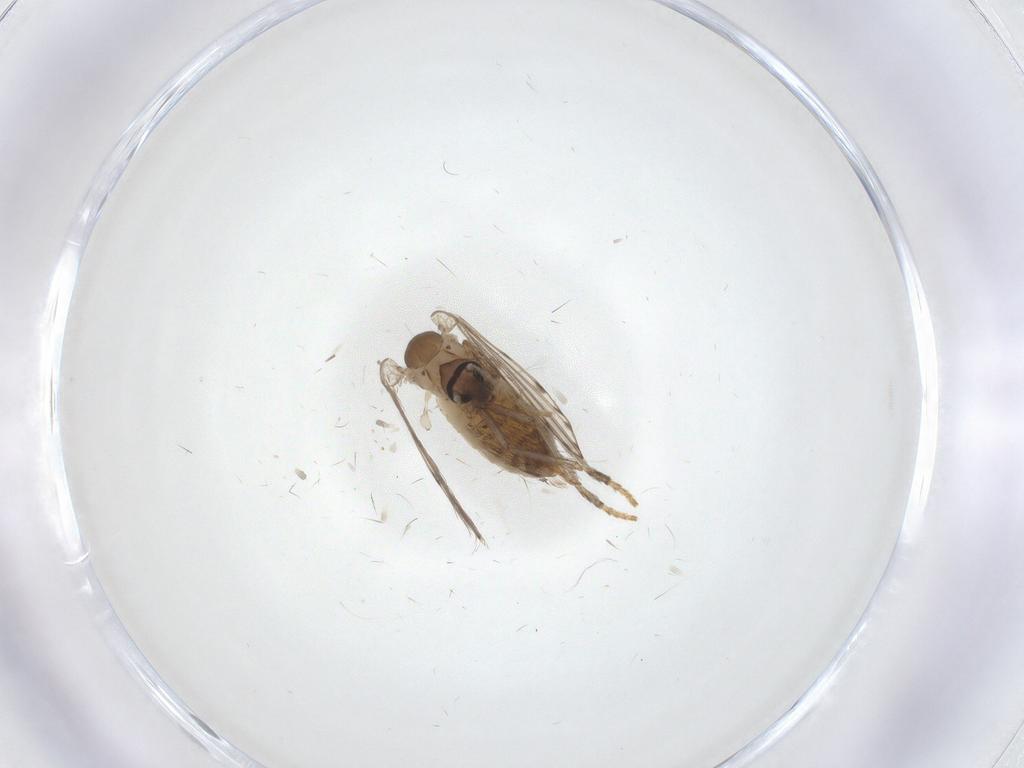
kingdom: Animalia
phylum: Arthropoda
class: Insecta
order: Diptera
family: Psychodidae
